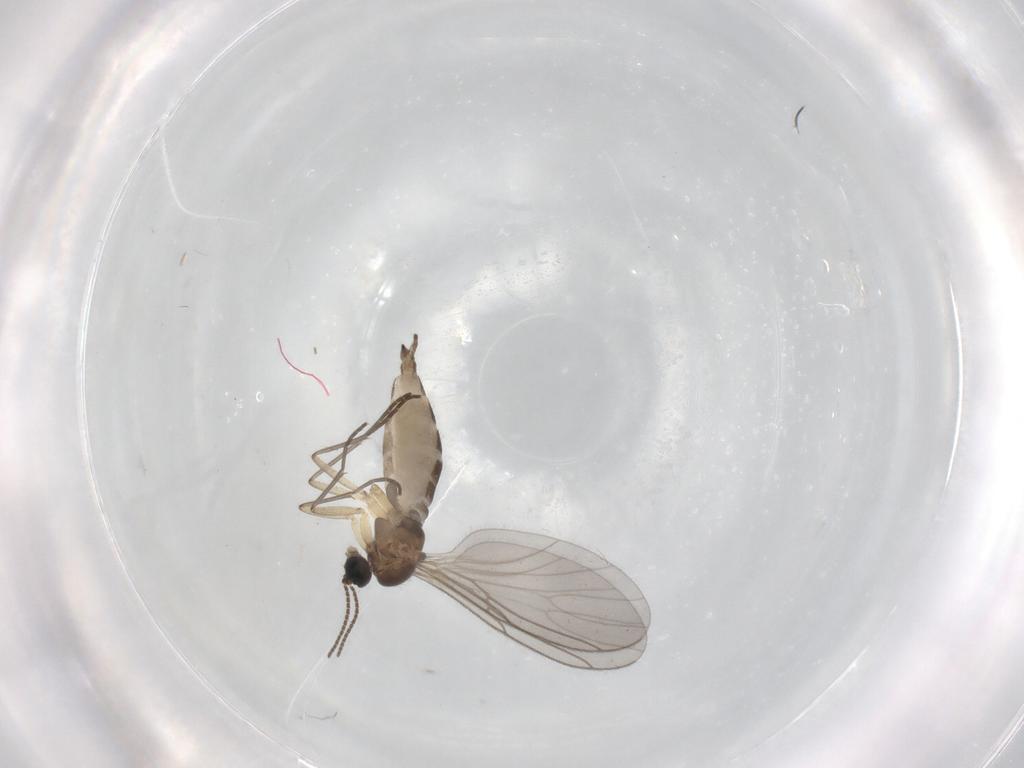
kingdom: Animalia
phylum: Arthropoda
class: Insecta
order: Diptera
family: Sciaridae
